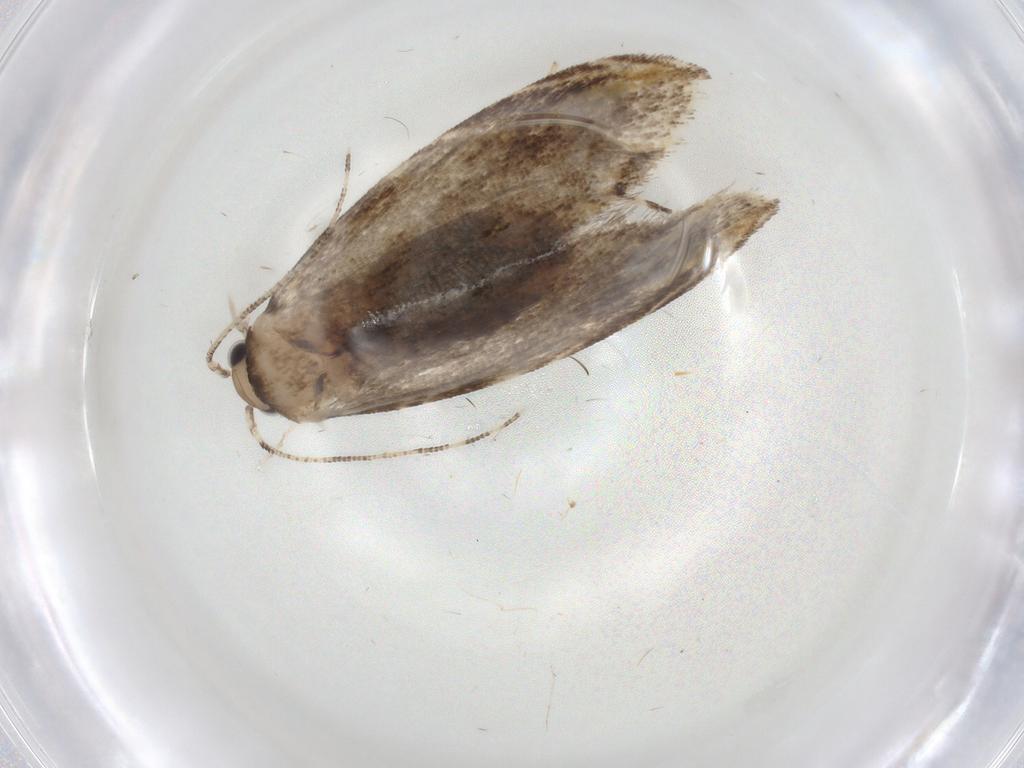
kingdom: Animalia
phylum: Arthropoda
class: Insecta
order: Lepidoptera
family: Tineidae
